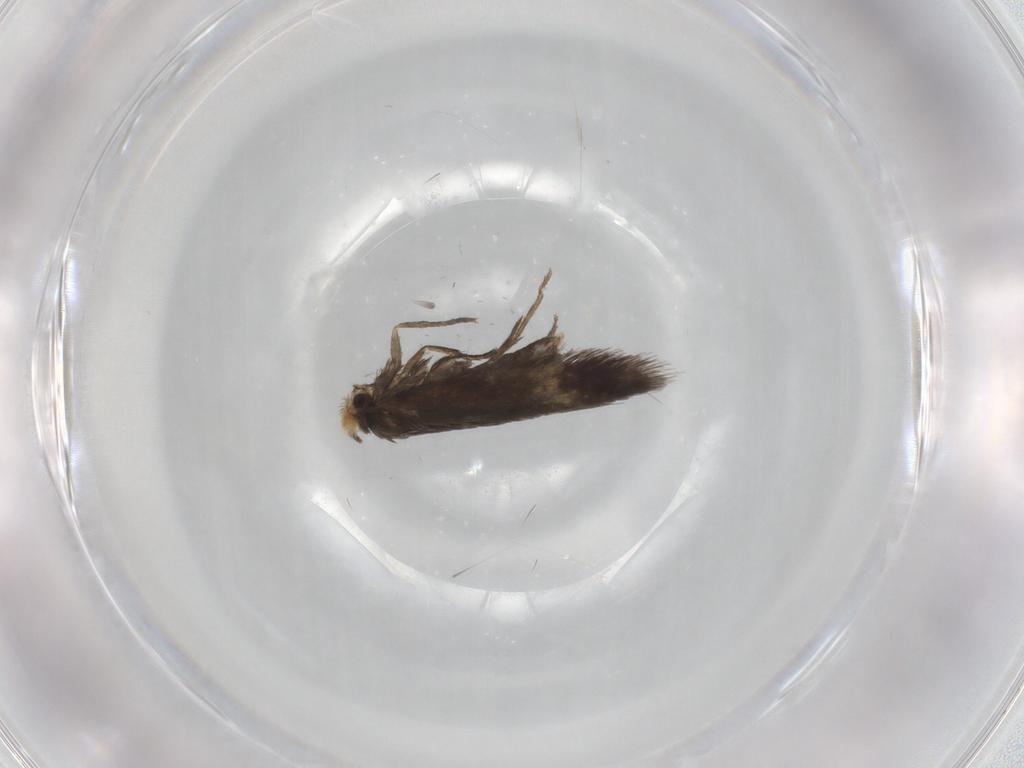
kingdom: Animalia
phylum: Arthropoda
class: Insecta
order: Lepidoptera
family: Nepticulidae
